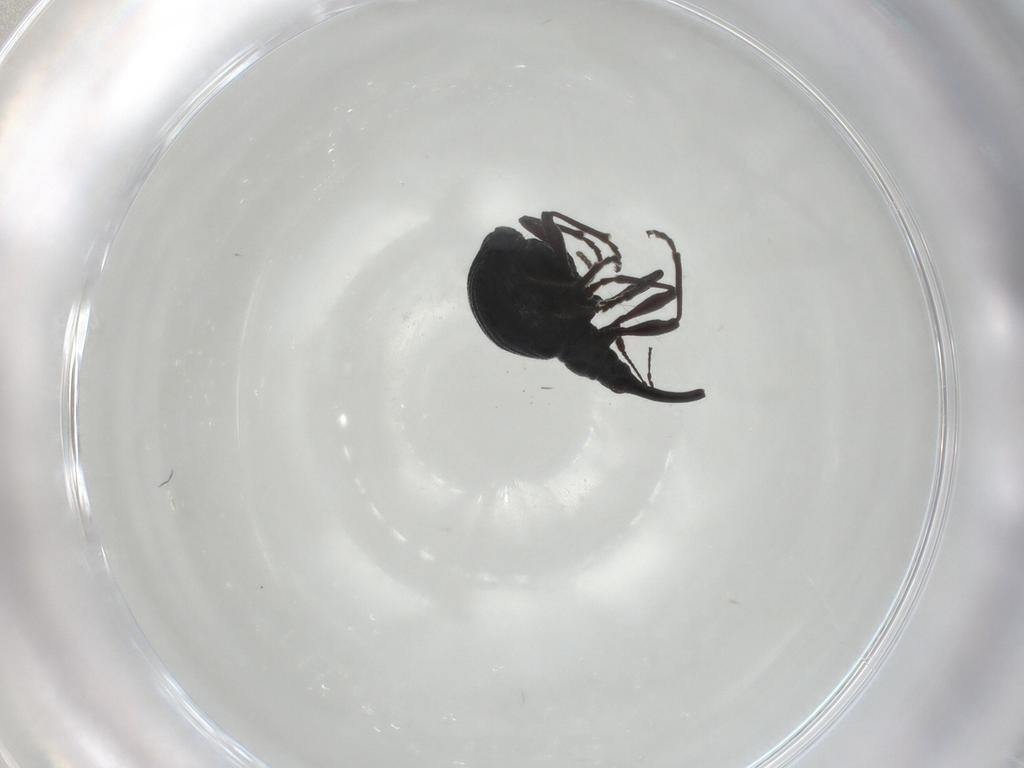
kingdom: Animalia
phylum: Arthropoda
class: Insecta
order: Diptera
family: Sciaridae
